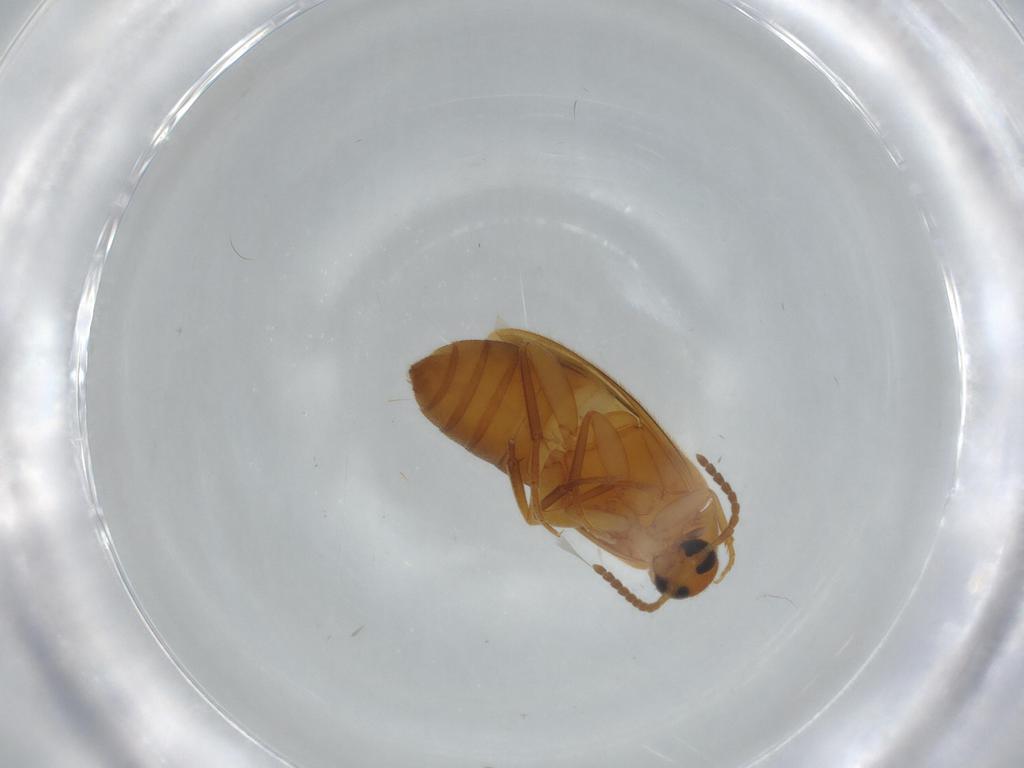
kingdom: Animalia
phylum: Arthropoda
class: Insecta
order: Coleoptera
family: Scraptiidae
